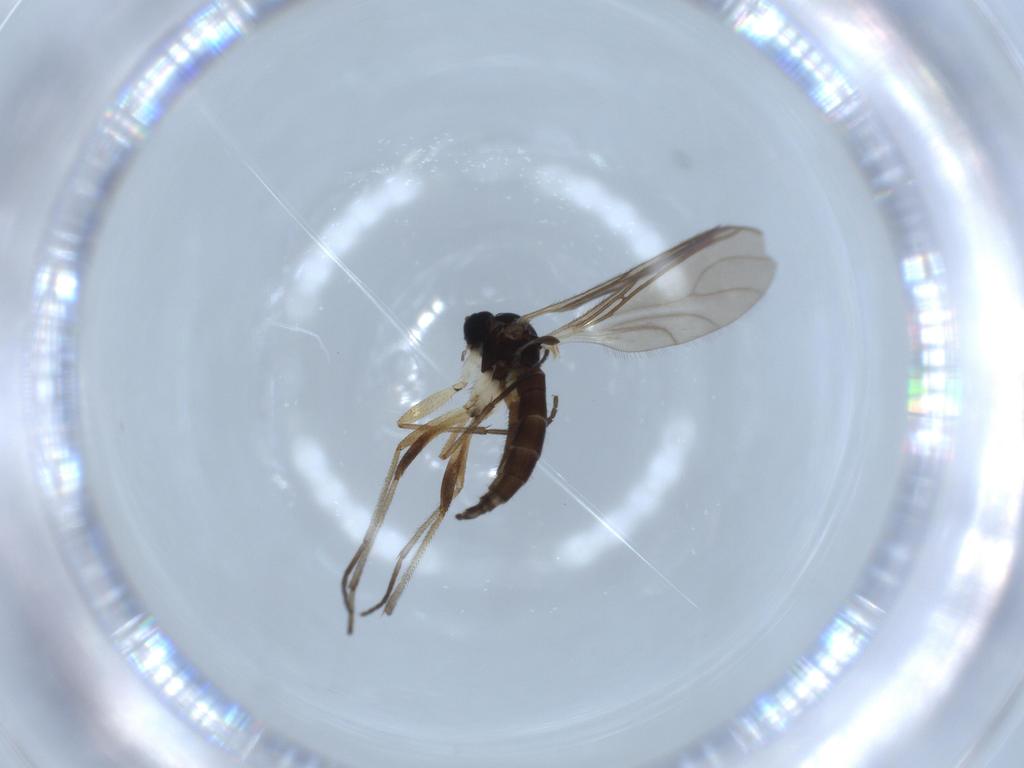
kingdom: Animalia
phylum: Arthropoda
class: Insecta
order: Diptera
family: Sciaridae
